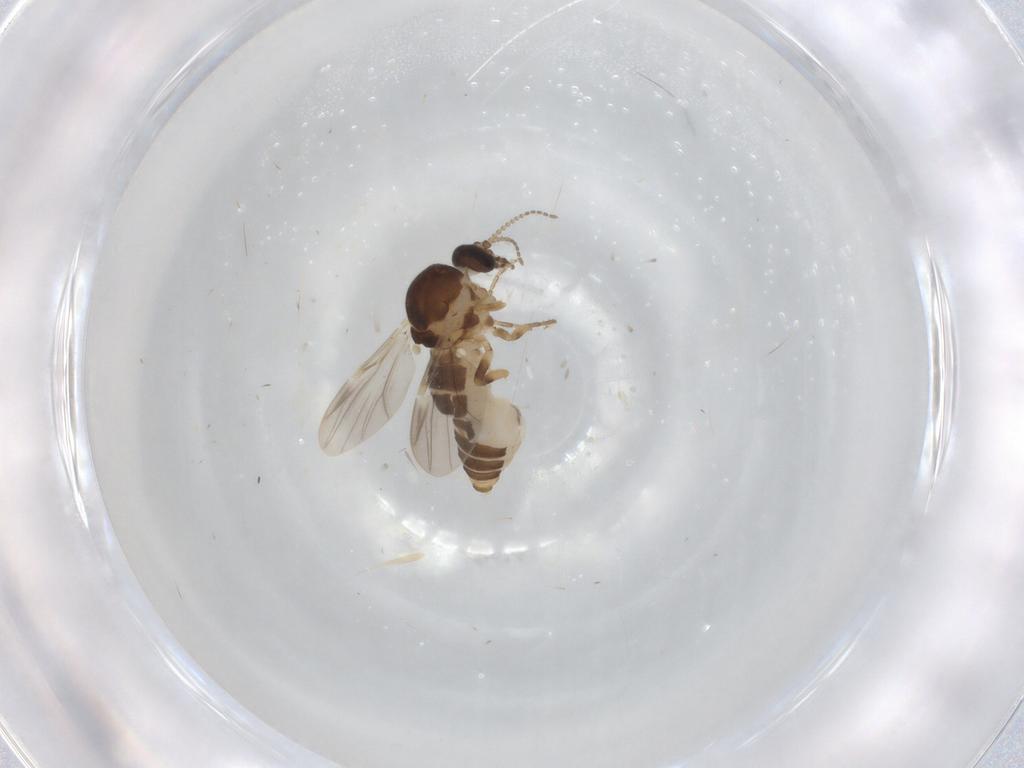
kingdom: Animalia
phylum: Arthropoda
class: Insecta
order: Diptera
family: Ceratopogonidae
